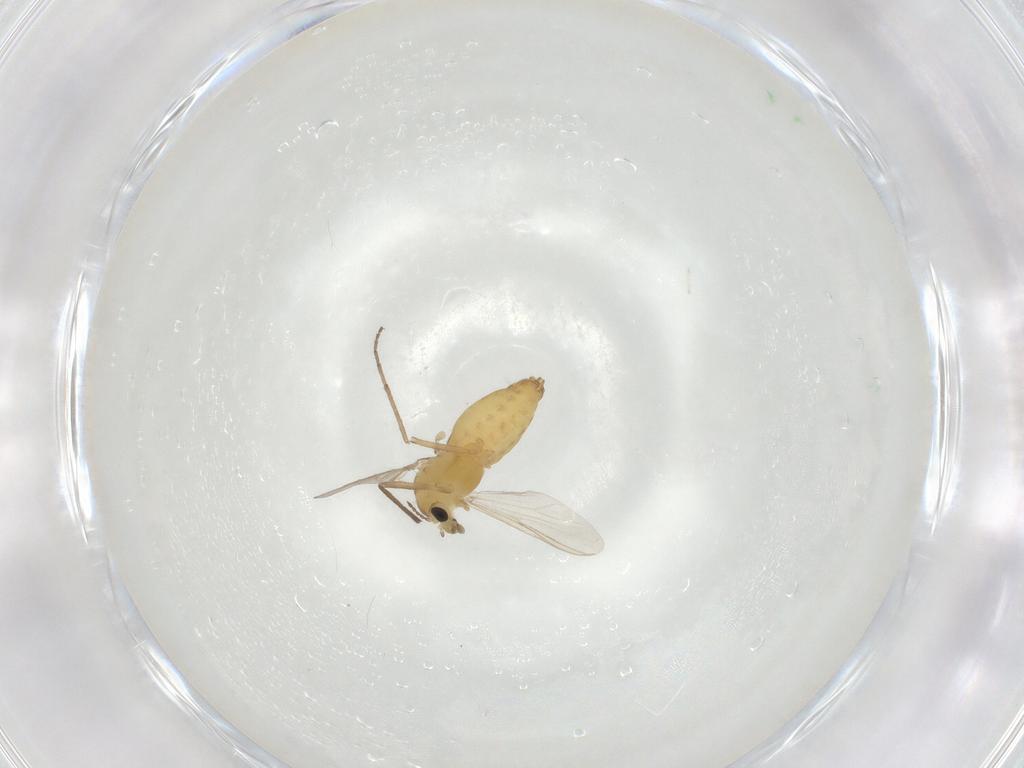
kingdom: Animalia
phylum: Arthropoda
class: Insecta
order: Diptera
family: Chironomidae
